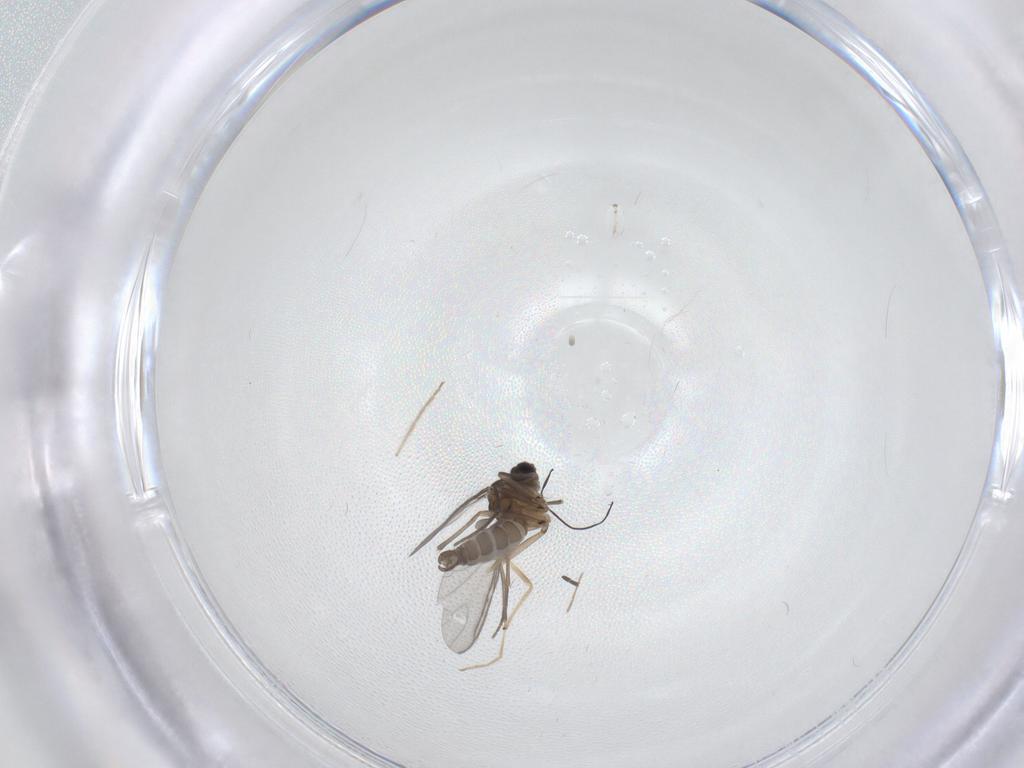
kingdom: Animalia
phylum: Arthropoda
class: Insecta
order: Diptera
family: Sciaridae
